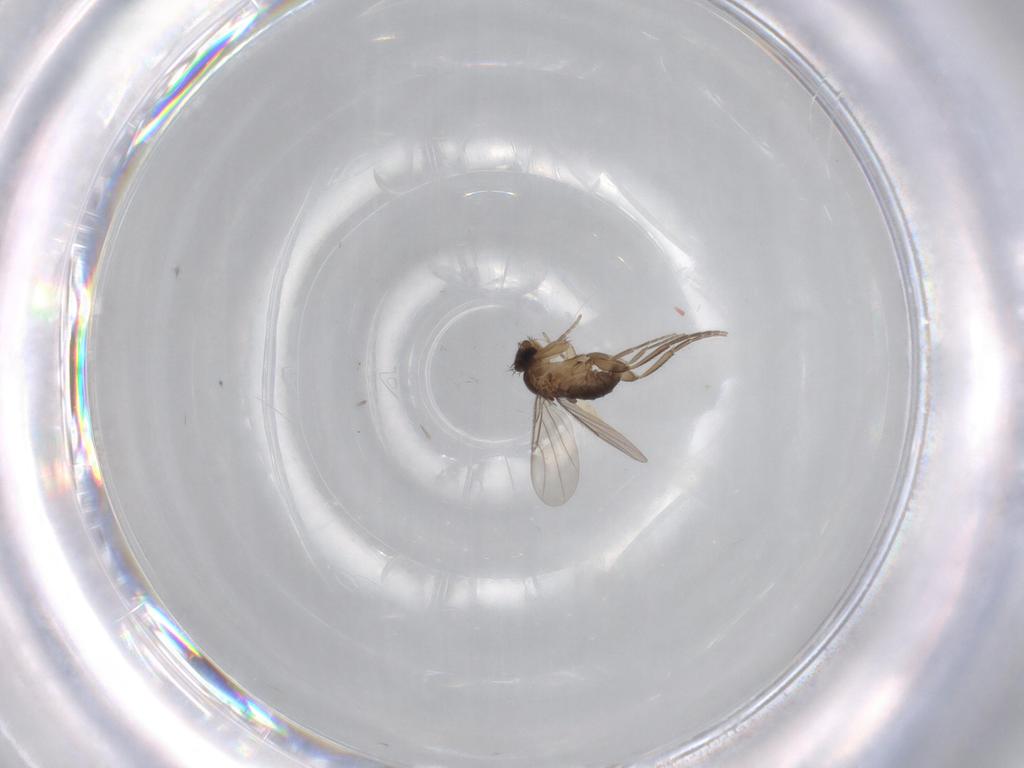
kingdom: Animalia
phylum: Arthropoda
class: Insecta
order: Diptera
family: Phoridae
